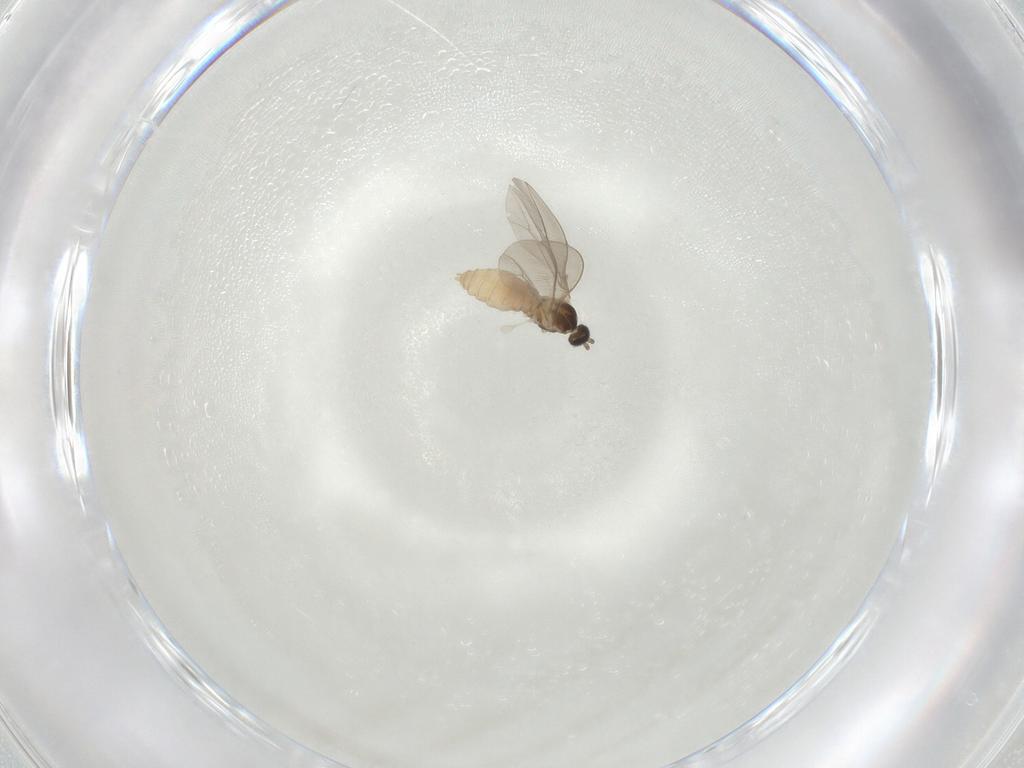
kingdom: Animalia
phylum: Arthropoda
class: Insecta
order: Diptera
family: Cecidomyiidae
